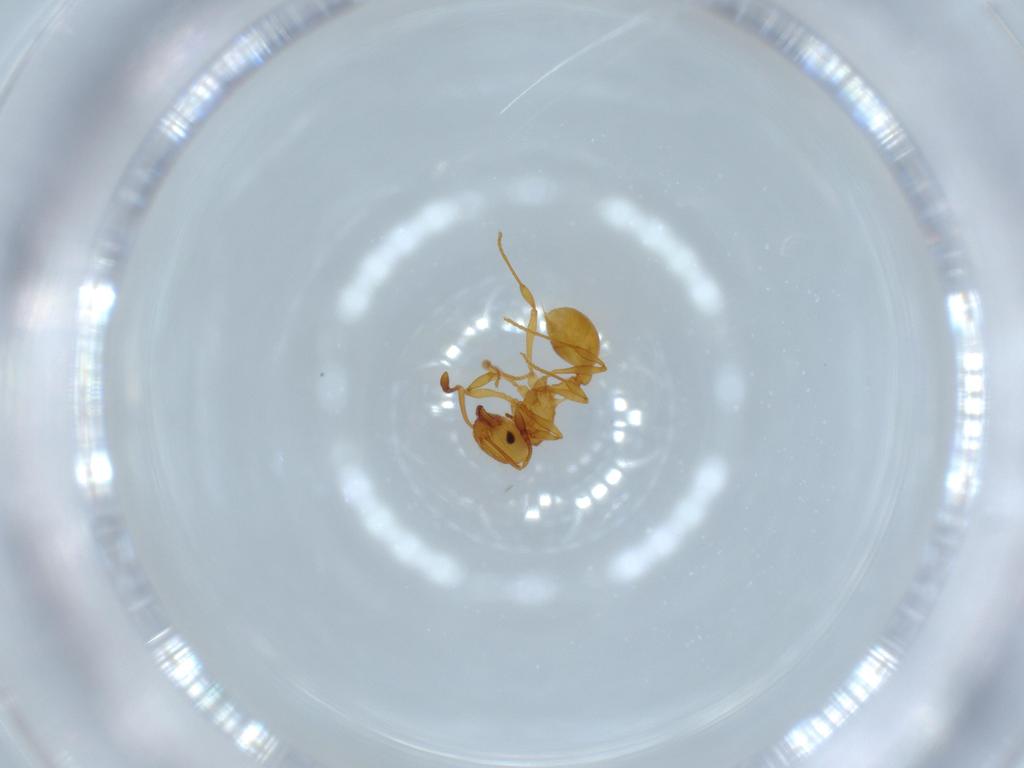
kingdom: Animalia
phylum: Arthropoda
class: Insecta
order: Hymenoptera
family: Formicidae
